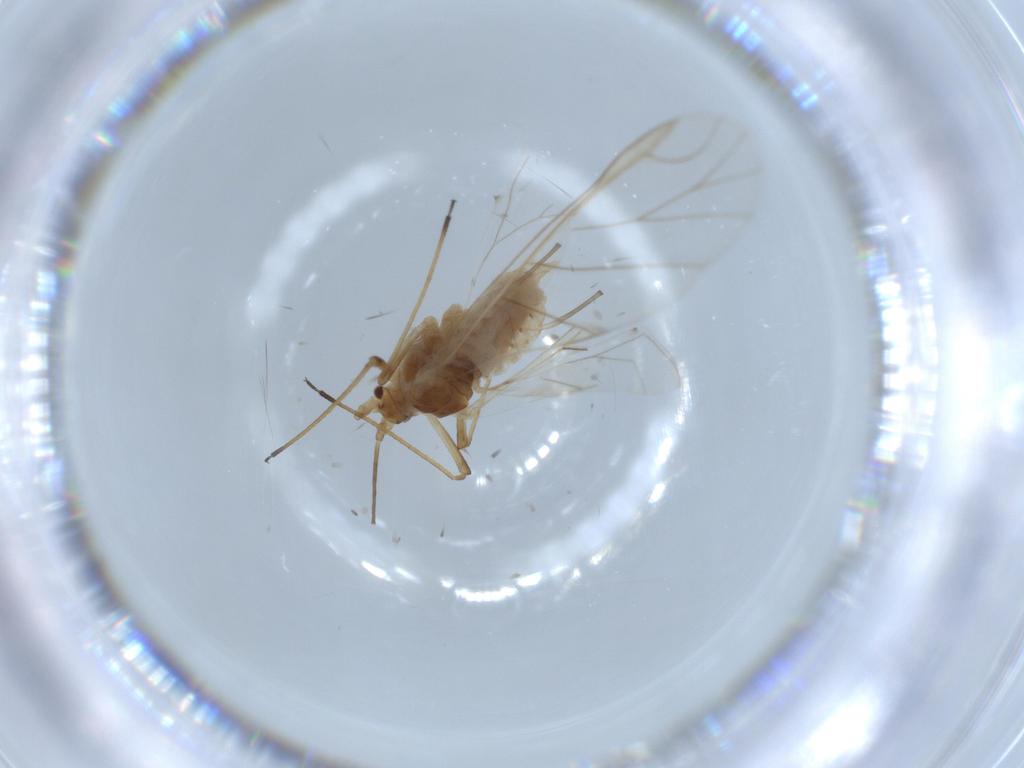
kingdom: Animalia
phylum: Arthropoda
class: Insecta
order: Hemiptera
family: Aphididae
